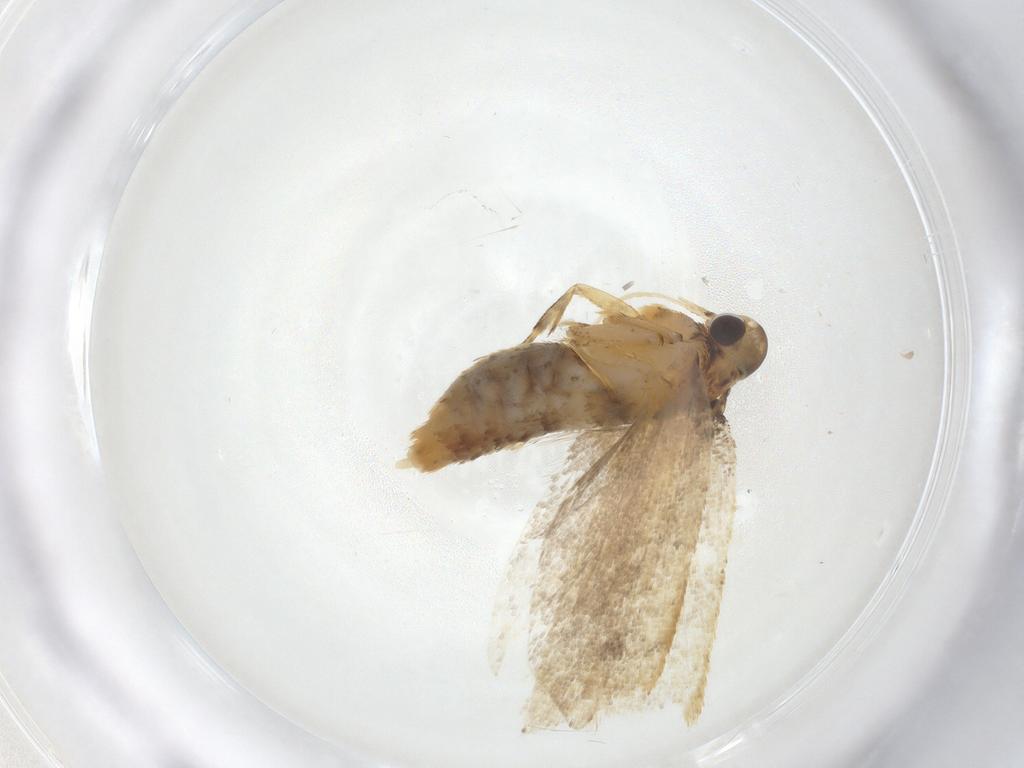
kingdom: Animalia
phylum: Arthropoda
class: Insecta
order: Lepidoptera
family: Lecithoceridae
